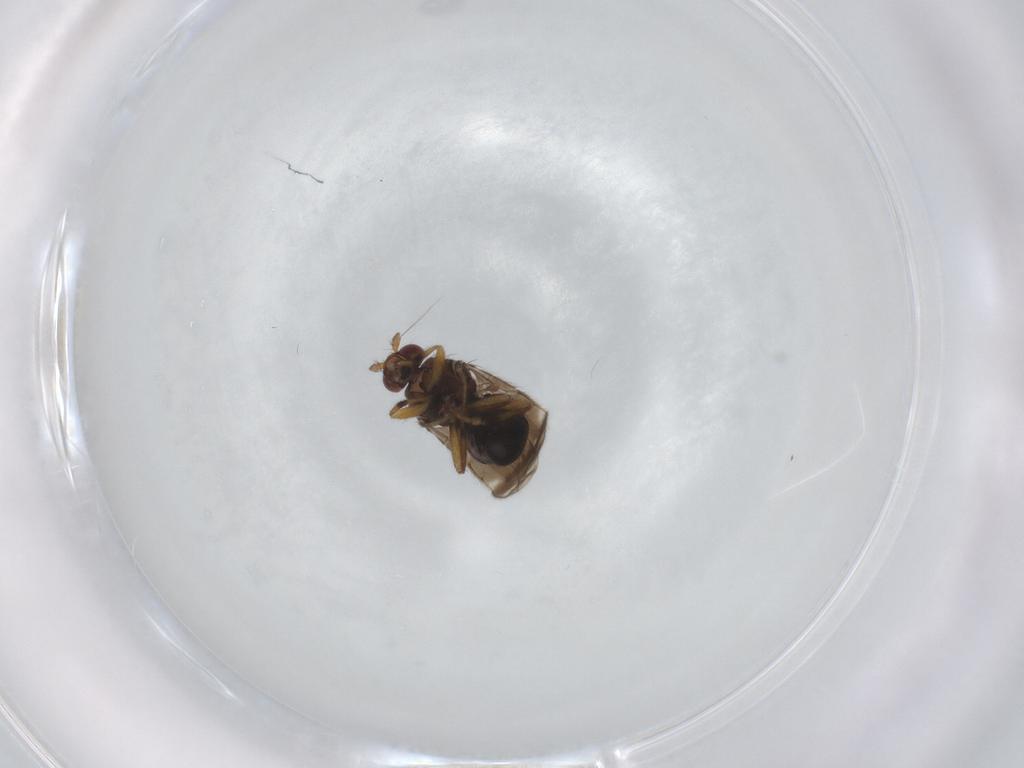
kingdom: Animalia
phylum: Arthropoda
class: Insecta
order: Diptera
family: Sphaeroceridae
